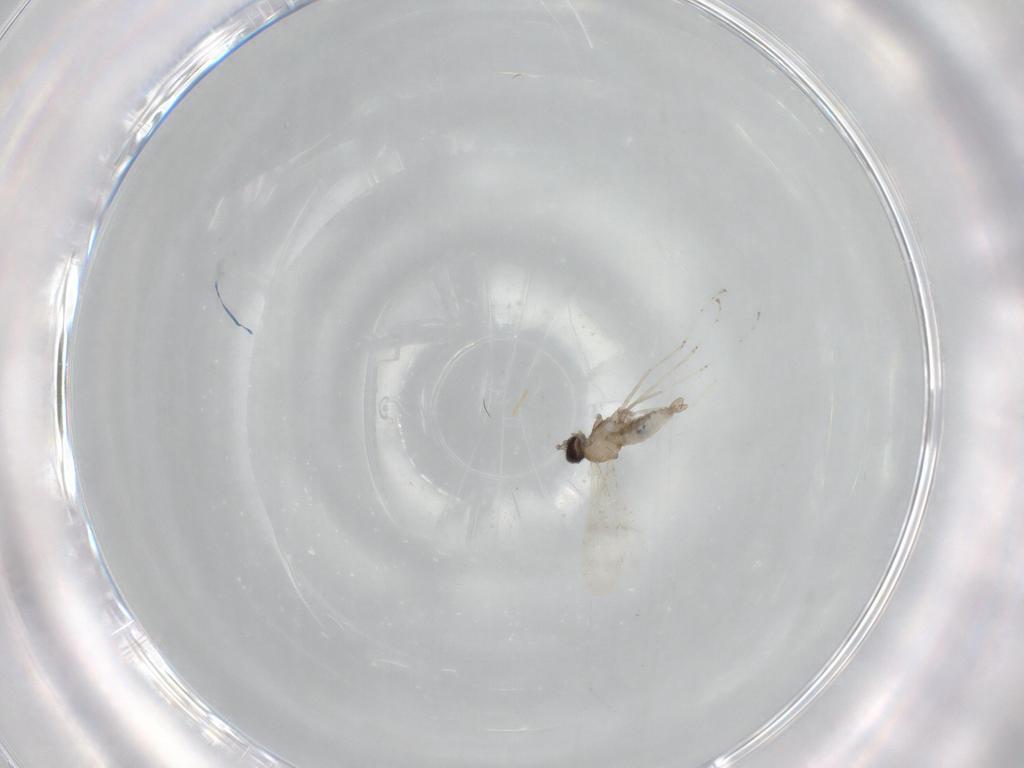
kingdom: Animalia
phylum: Arthropoda
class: Insecta
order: Diptera
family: Cecidomyiidae
